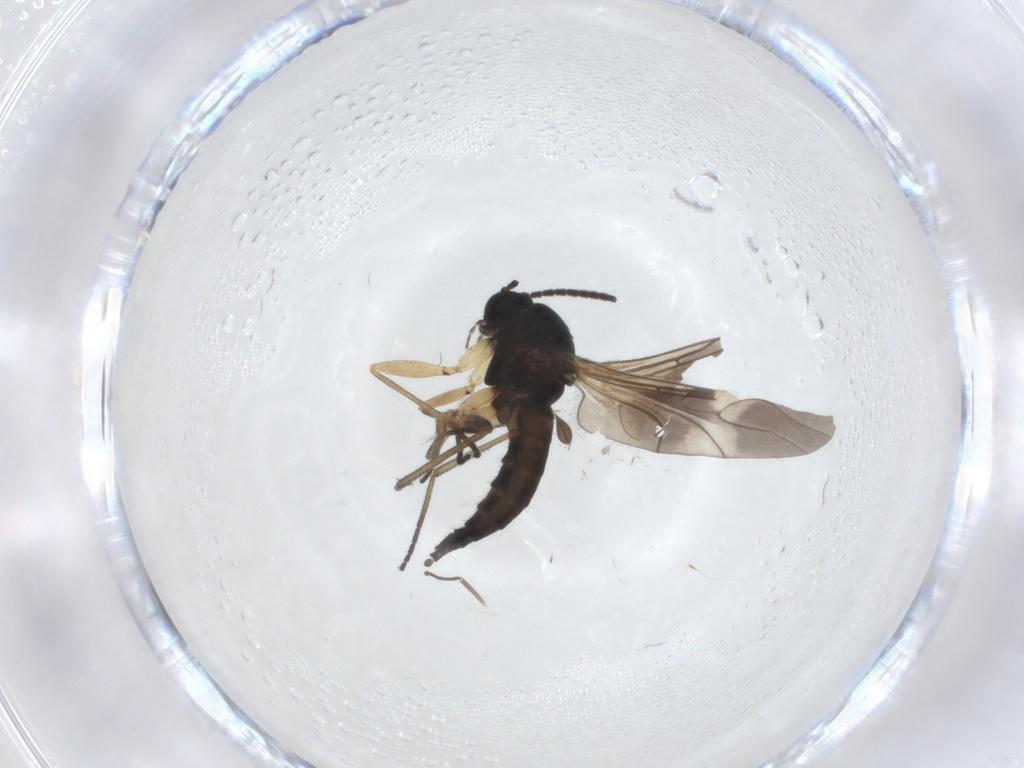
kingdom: Animalia
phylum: Arthropoda
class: Insecta
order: Diptera
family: Sciaridae
